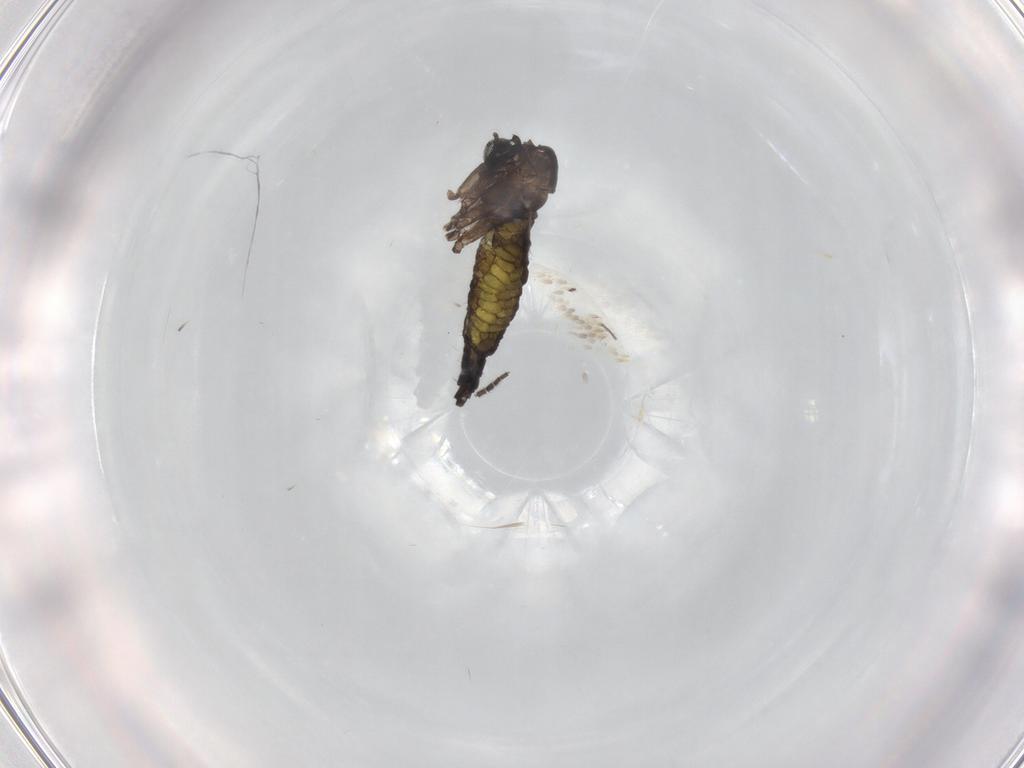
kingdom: Animalia
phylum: Arthropoda
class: Insecta
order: Diptera
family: Psychodidae
